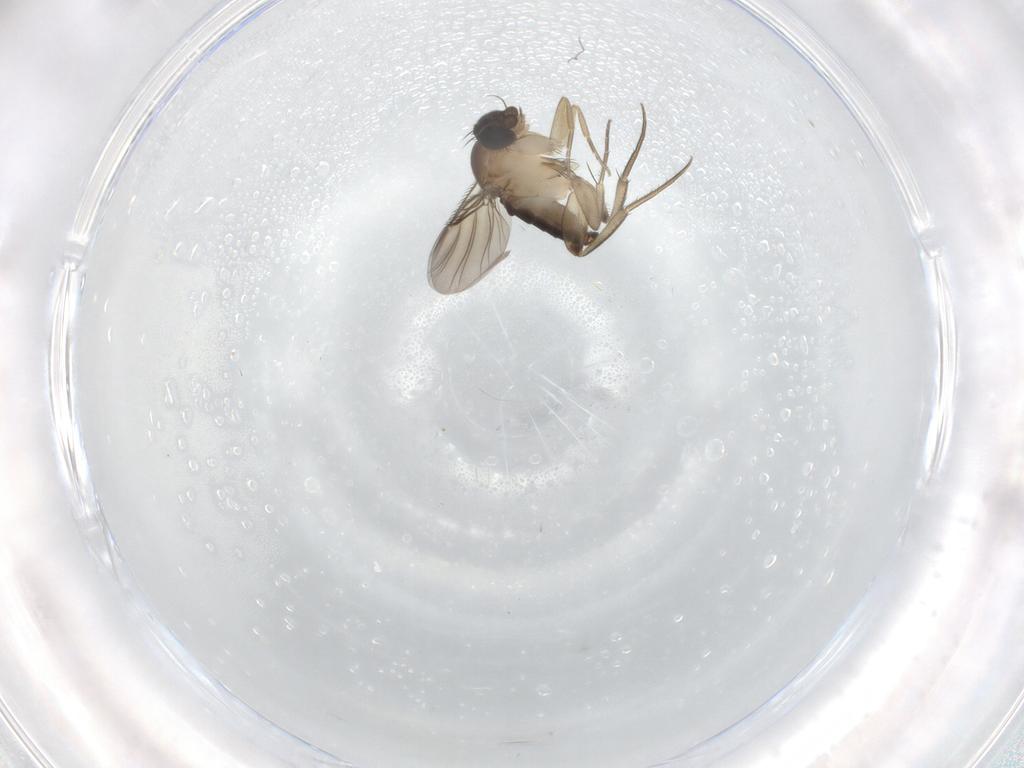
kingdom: Animalia
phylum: Arthropoda
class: Insecta
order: Diptera
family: Phoridae
